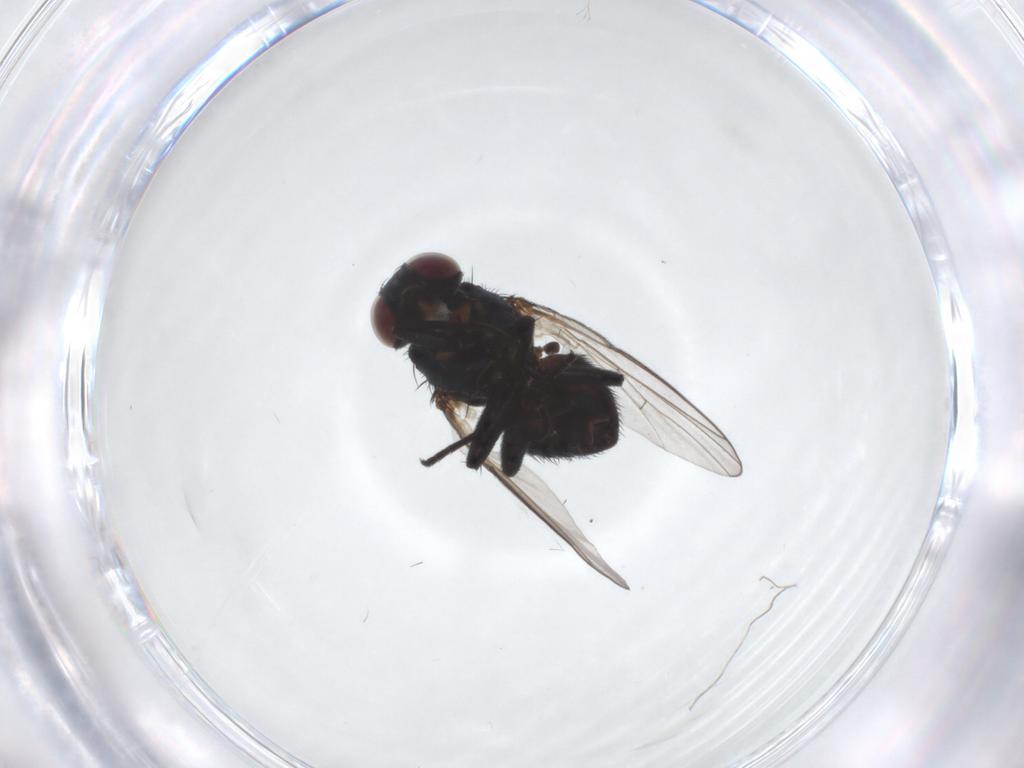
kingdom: Animalia
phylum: Arthropoda
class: Insecta
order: Diptera
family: Agromyzidae
